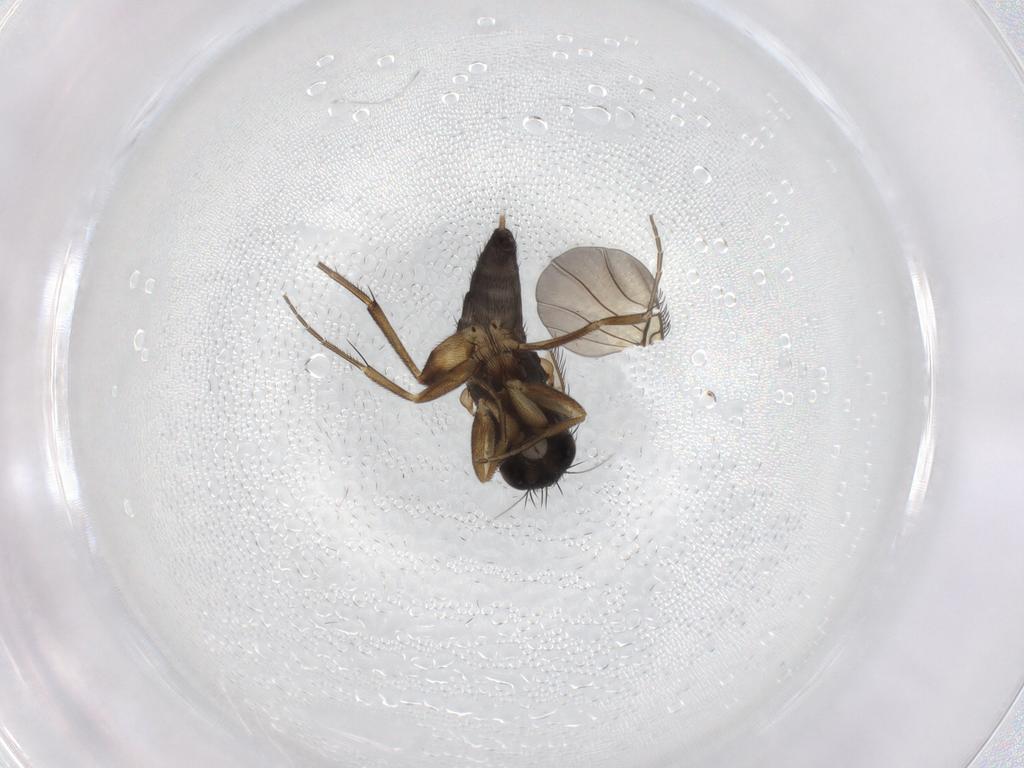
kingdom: Animalia
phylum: Arthropoda
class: Insecta
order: Diptera
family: Phoridae
